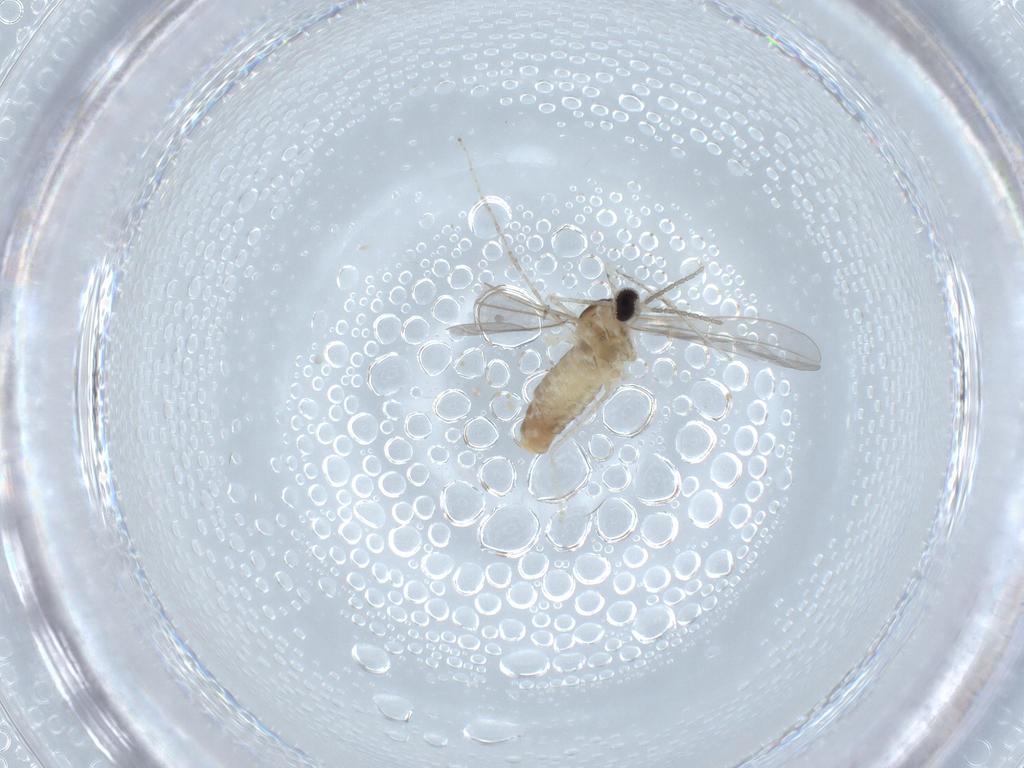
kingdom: Animalia
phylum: Arthropoda
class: Insecta
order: Diptera
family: Cecidomyiidae
